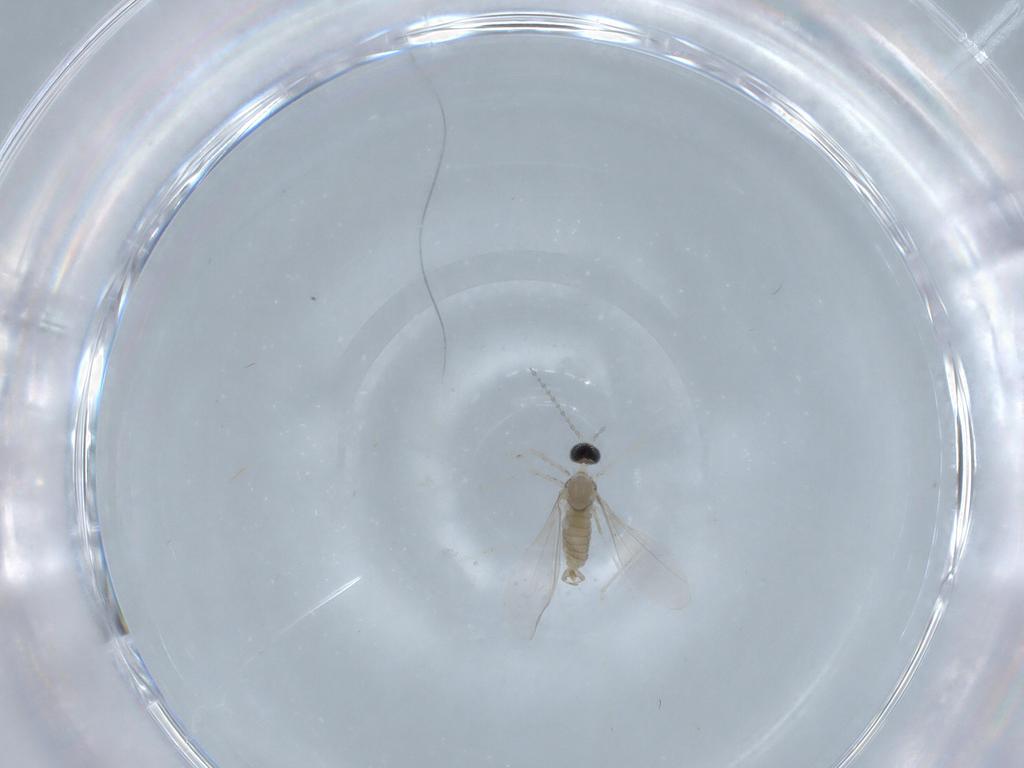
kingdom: Animalia
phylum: Arthropoda
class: Insecta
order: Diptera
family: Cecidomyiidae
